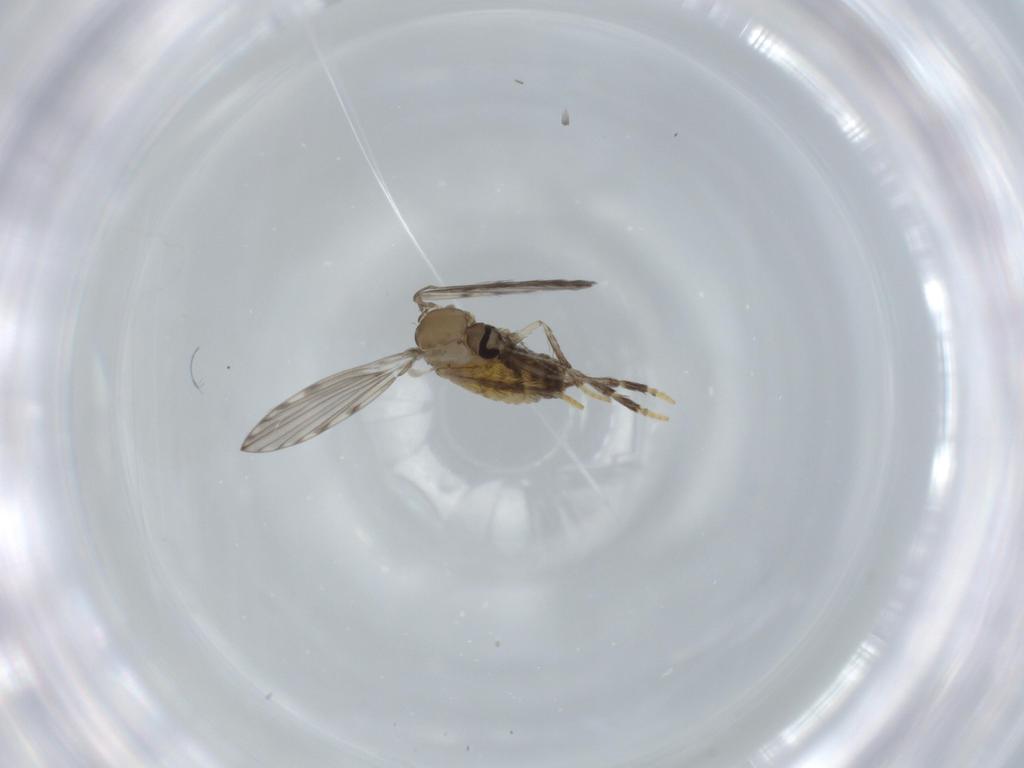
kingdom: Animalia
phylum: Arthropoda
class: Insecta
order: Diptera
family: Psychodidae
